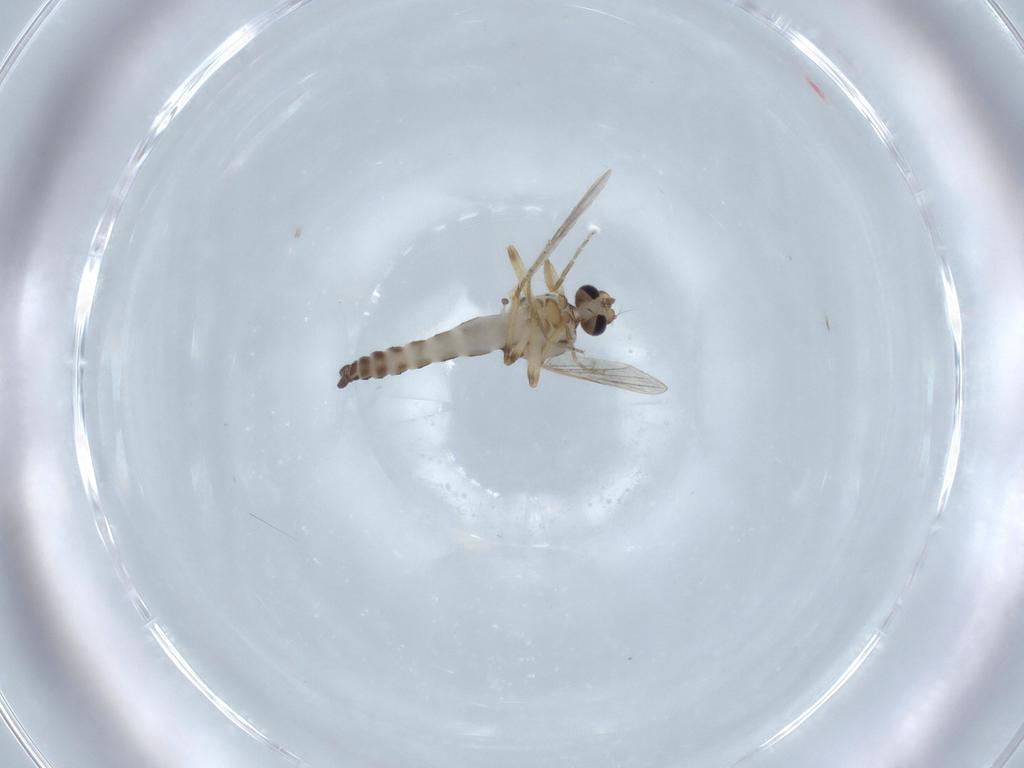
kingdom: Animalia
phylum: Arthropoda
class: Insecta
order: Diptera
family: Ceratopogonidae
